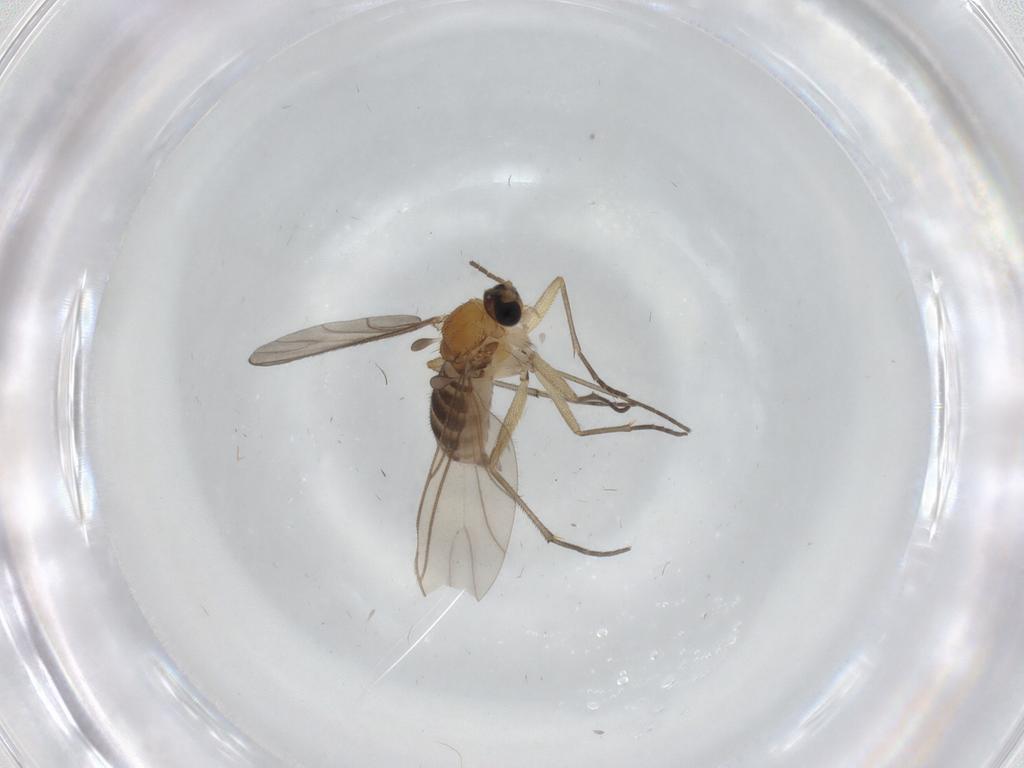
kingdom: Animalia
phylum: Arthropoda
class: Insecta
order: Diptera
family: Sciaridae
